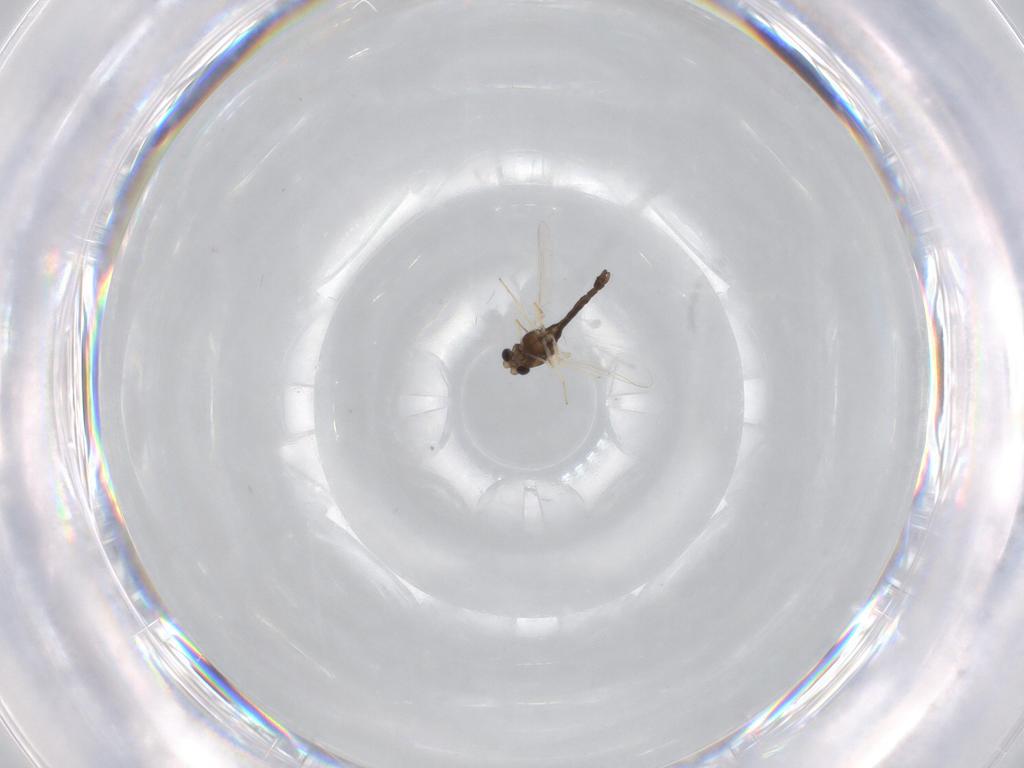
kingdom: Animalia
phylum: Arthropoda
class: Insecta
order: Diptera
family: Chironomidae
